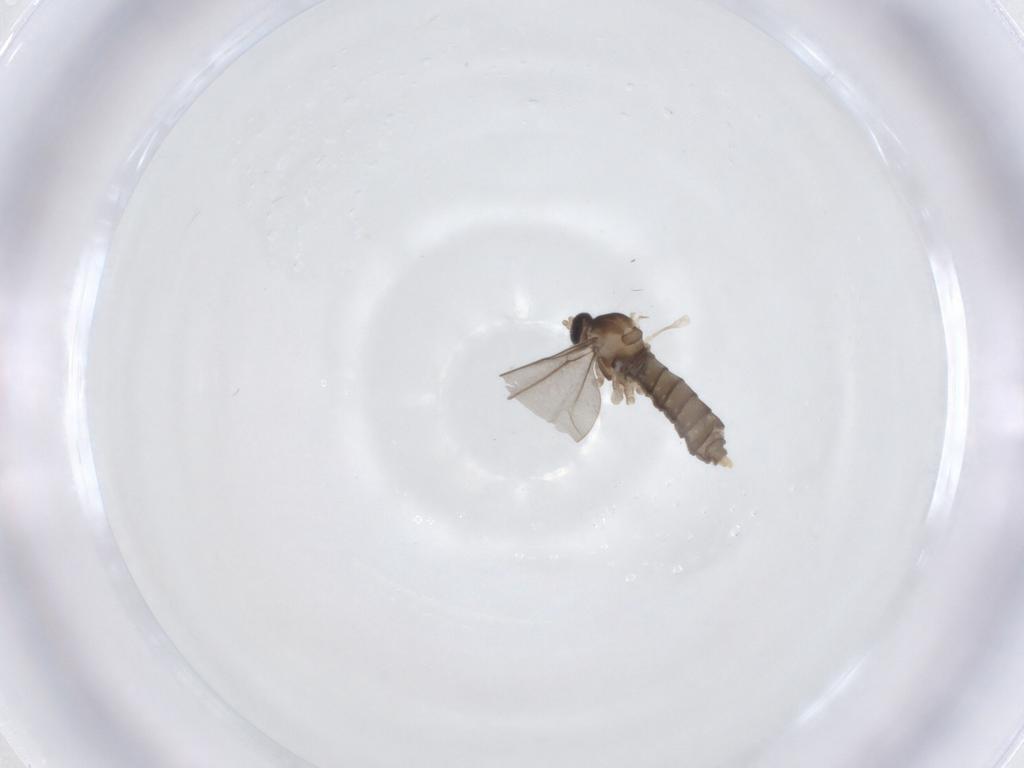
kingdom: Animalia
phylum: Arthropoda
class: Insecta
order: Diptera
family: Cecidomyiidae
